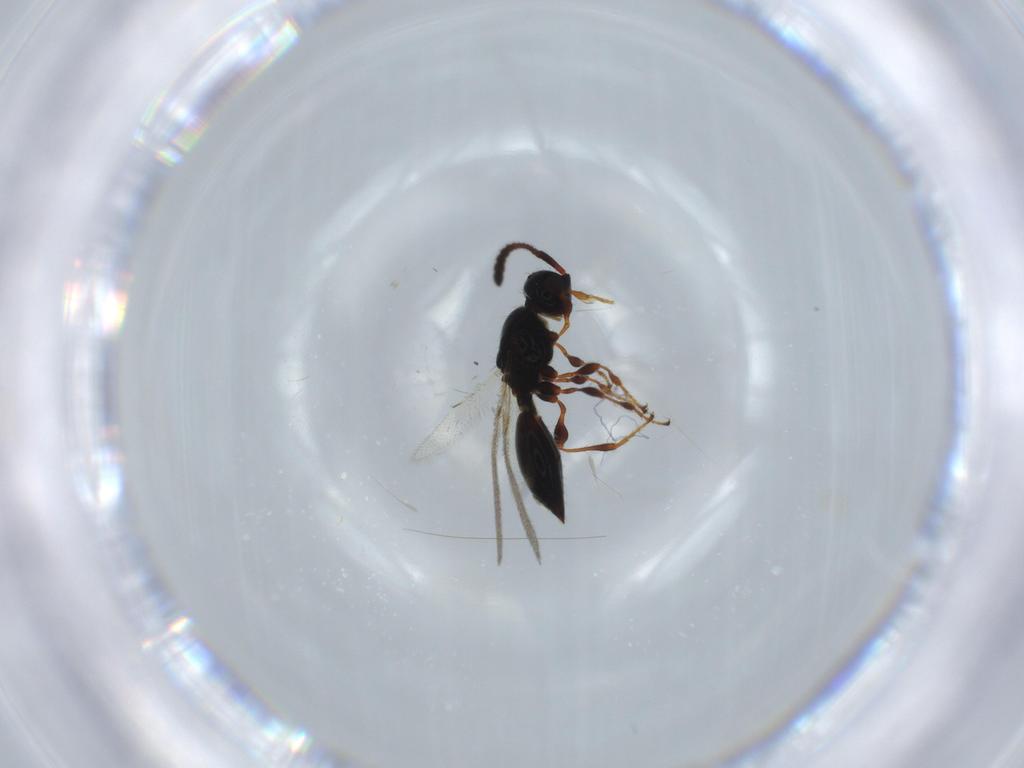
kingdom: Animalia
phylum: Arthropoda
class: Insecta
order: Hymenoptera
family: Diapriidae
